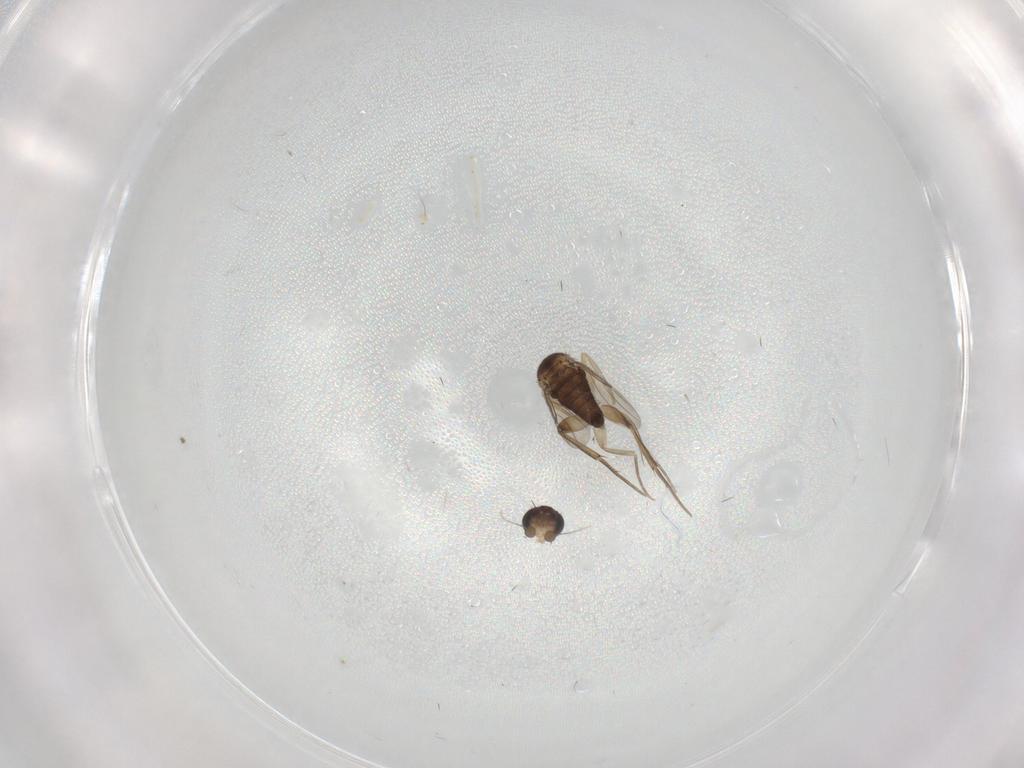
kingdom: Animalia
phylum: Arthropoda
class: Insecta
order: Diptera
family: Phoridae
